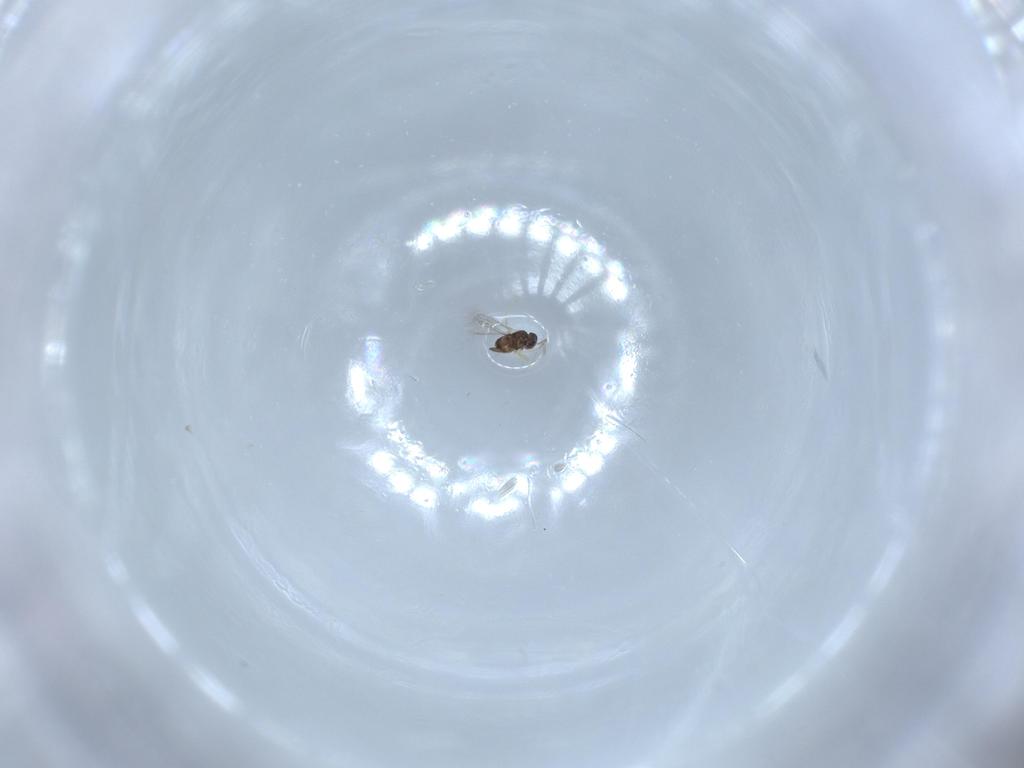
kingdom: Animalia
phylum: Arthropoda
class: Insecta
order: Hymenoptera
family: Mymaridae
